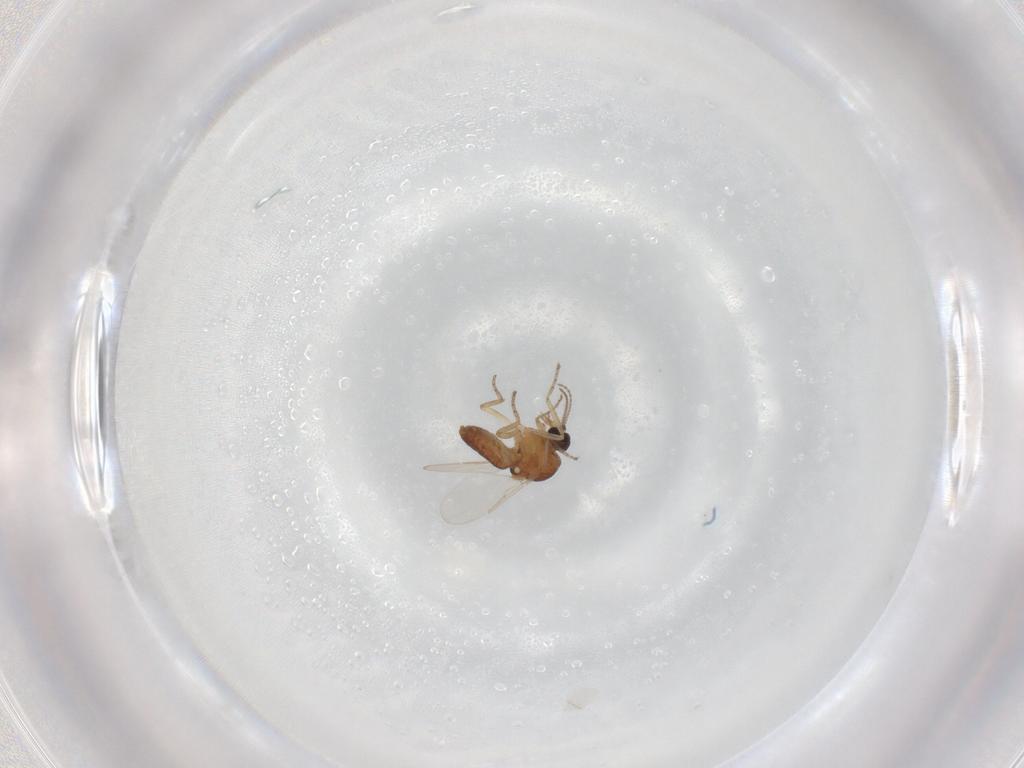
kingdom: Animalia
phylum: Arthropoda
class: Insecta
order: Diptera
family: Ceratopogonidae
